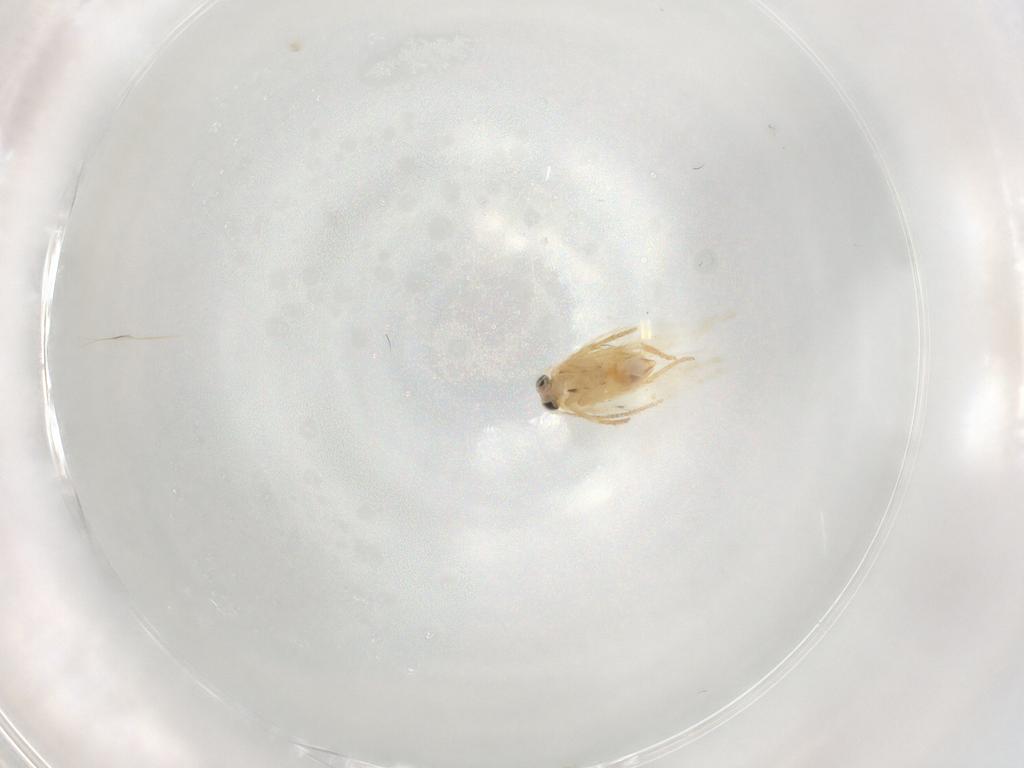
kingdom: Animalia
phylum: Arthropoda
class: Insecta
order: Lepidoptera
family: Nepticulidae
